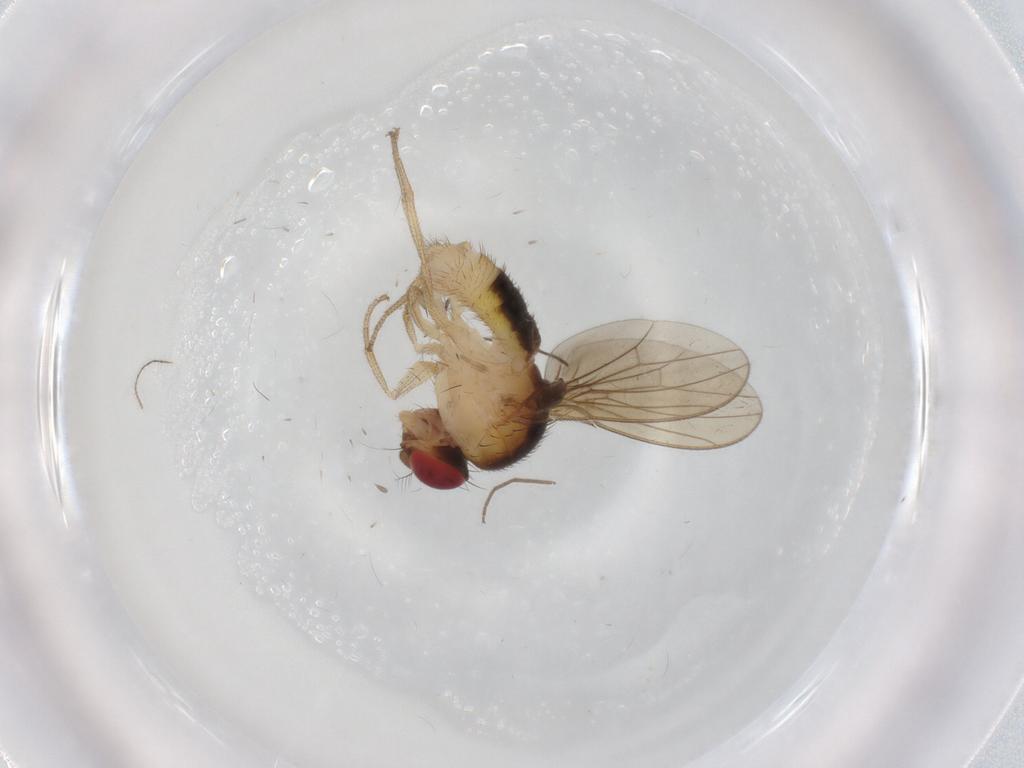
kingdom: Animalia
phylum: Arthropoda
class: Insecta
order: Diptera
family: Drosophilidae
